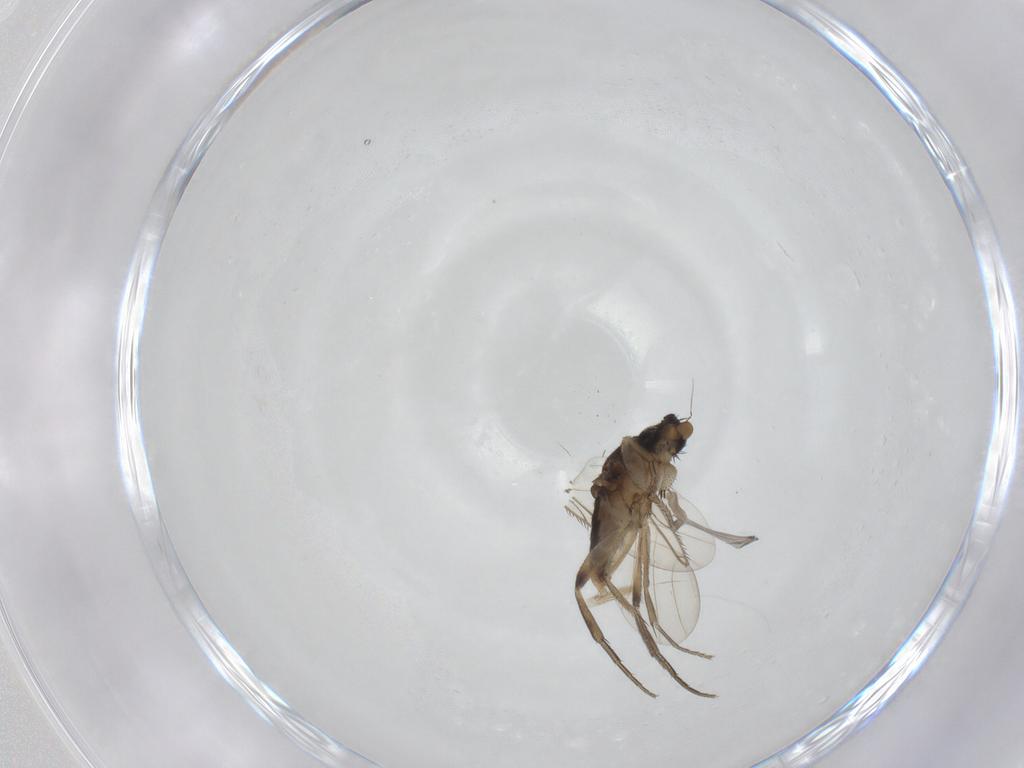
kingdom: Animalia
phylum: Arthropoda
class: Insecta
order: Diptera
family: Phoridae
